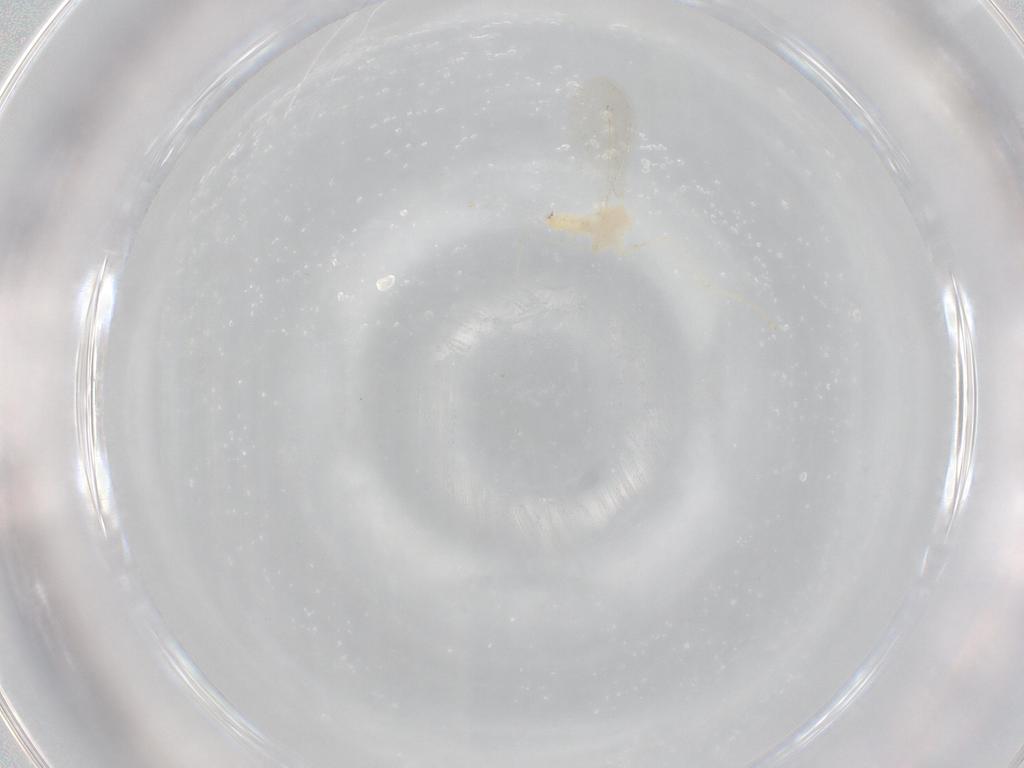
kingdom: Animalia
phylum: Arthropoda
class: Insecta
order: Diptera
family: Cecidomyiidae
